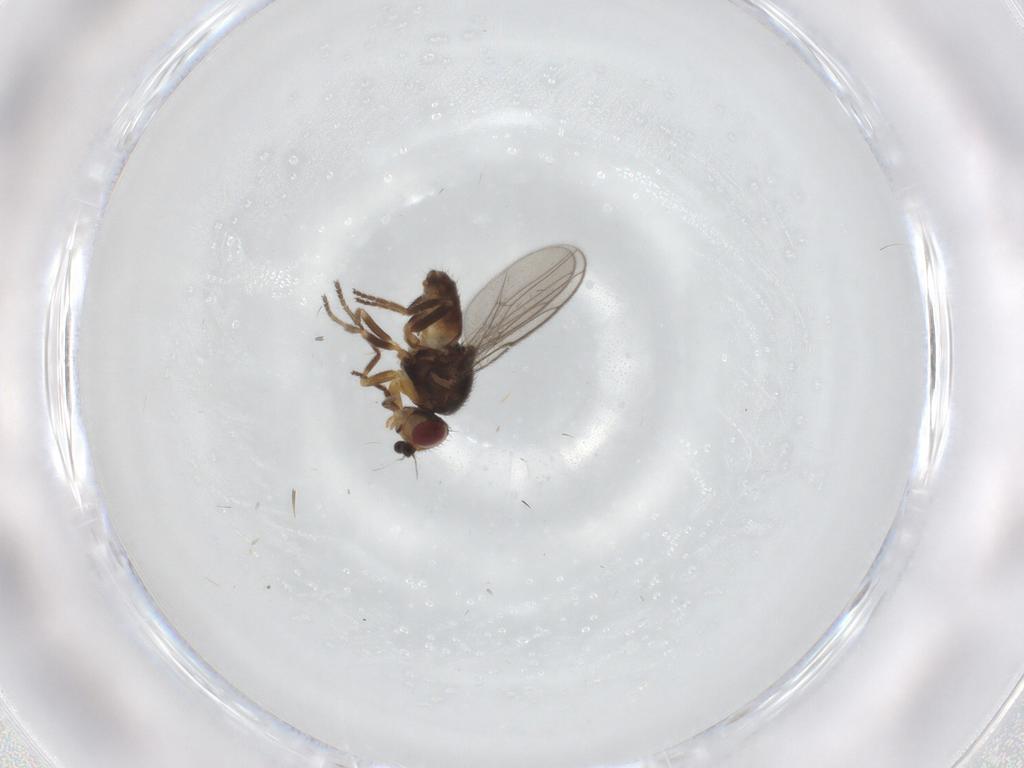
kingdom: Animalia
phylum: Arthropoda
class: Insecta
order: Diptera
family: Chloropidae
